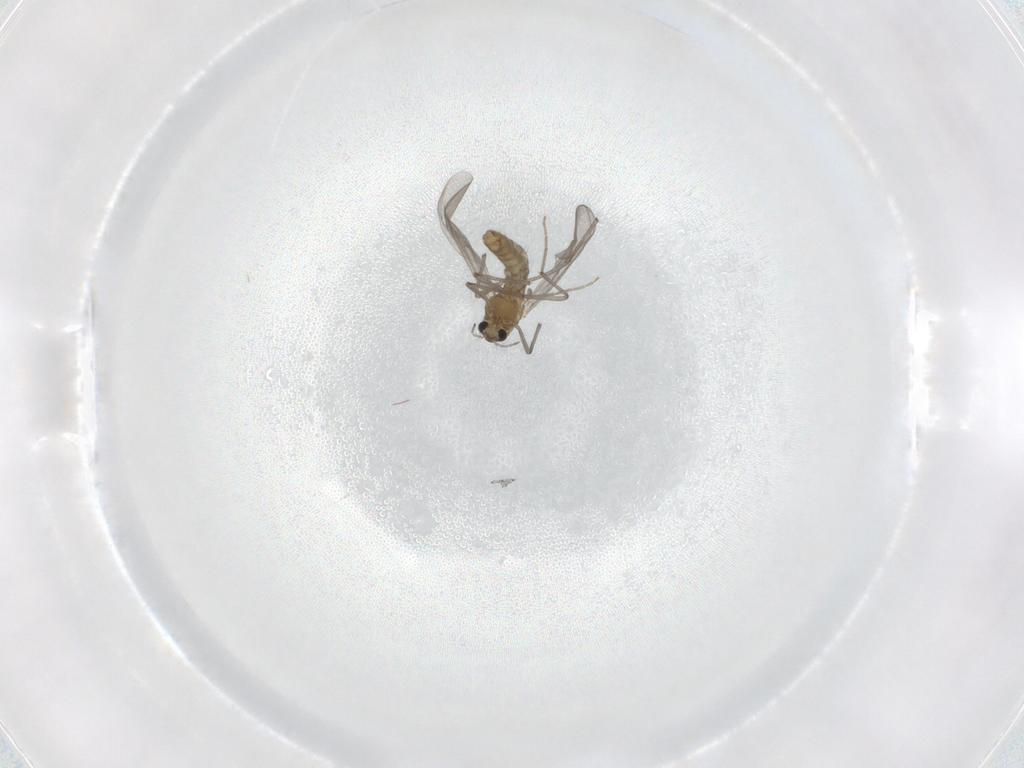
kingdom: Animalia
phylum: Arthropoda
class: Insecta
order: Diptera
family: Chironomidae
